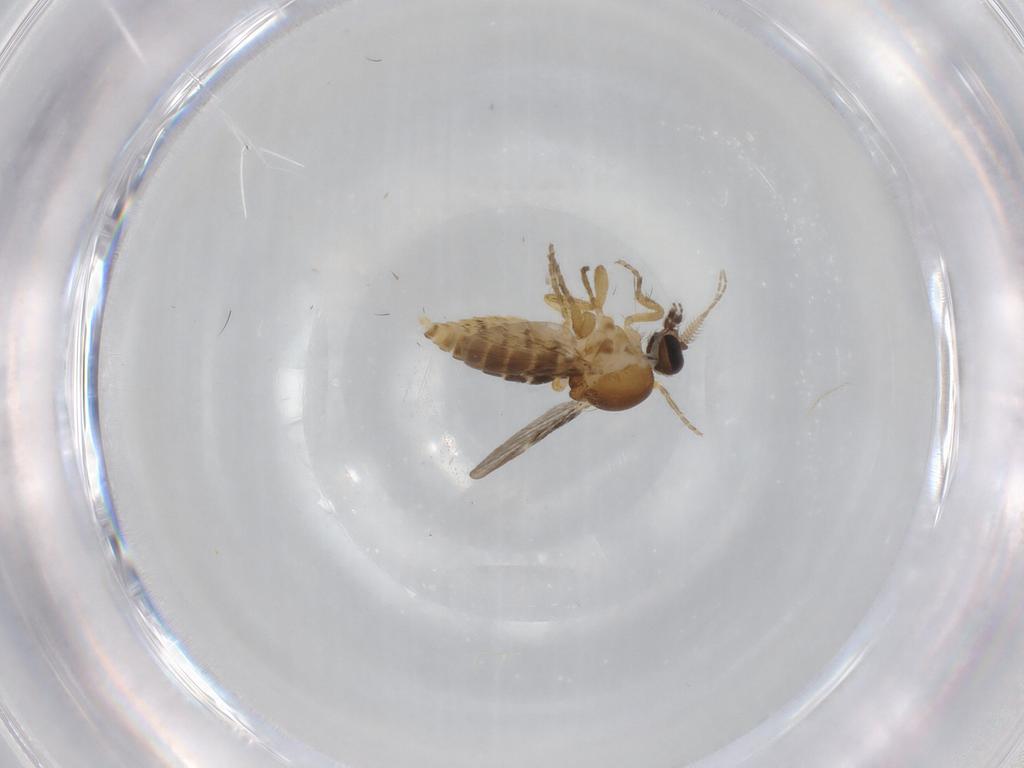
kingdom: Animalia
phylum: Arthropoda
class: Insecta
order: Diptera
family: Ceratopogonidae
